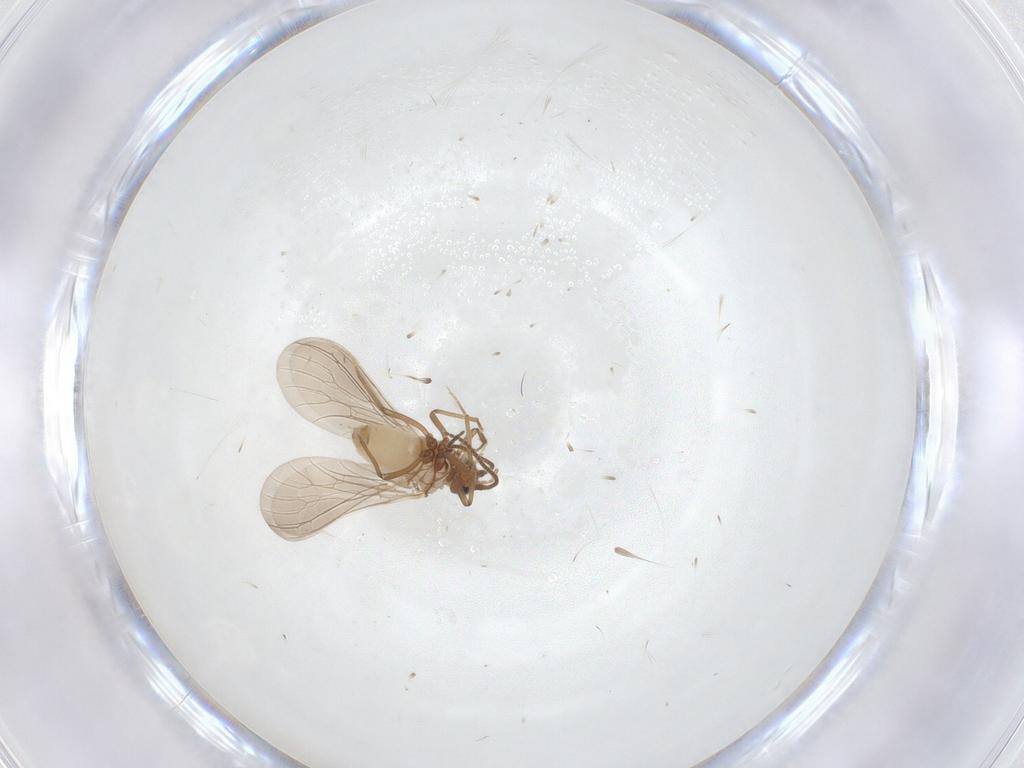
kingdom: Animalia
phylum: Arthropoda
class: Insecta
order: Neuroptera
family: Coniopterygidae
